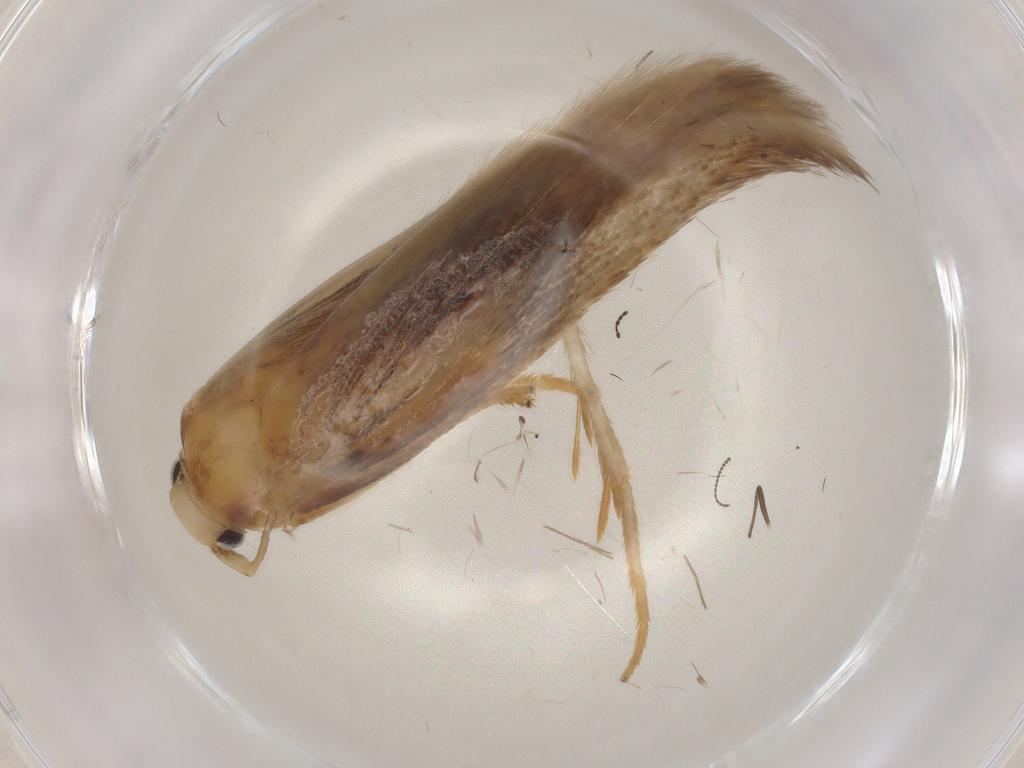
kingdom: Animalia
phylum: Arthropoda
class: Insecta
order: Lepidoptera
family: Geometridae
